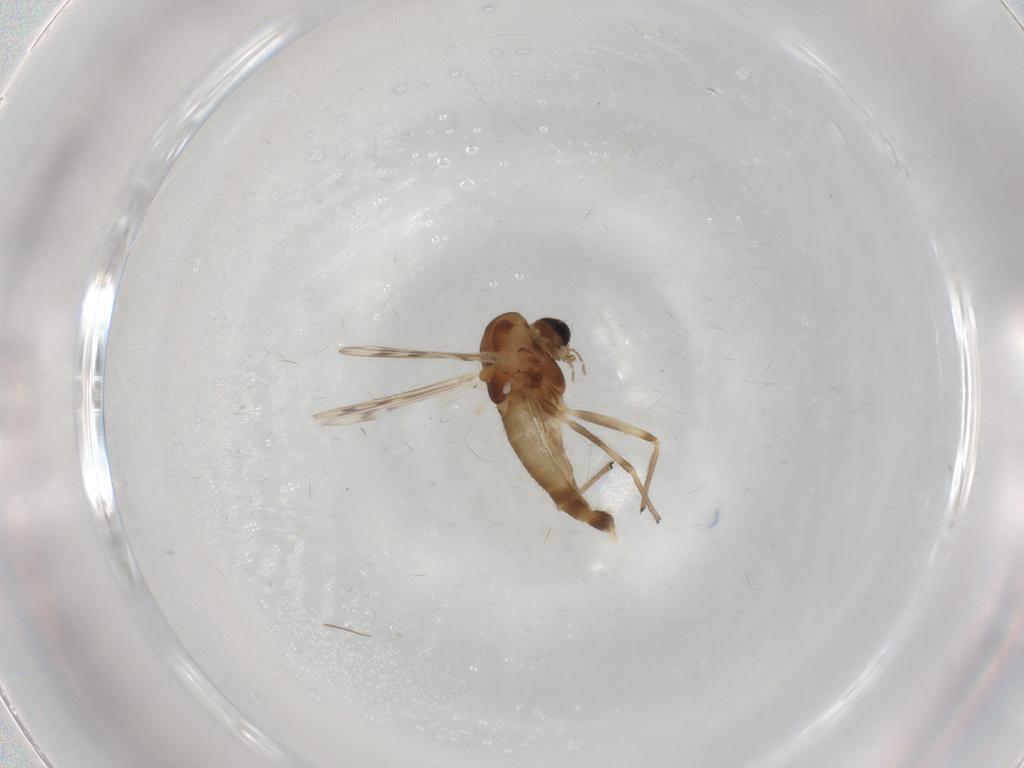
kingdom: Animalia
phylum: Arthropoda
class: Insecta
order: Diptera
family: Chironomidae
